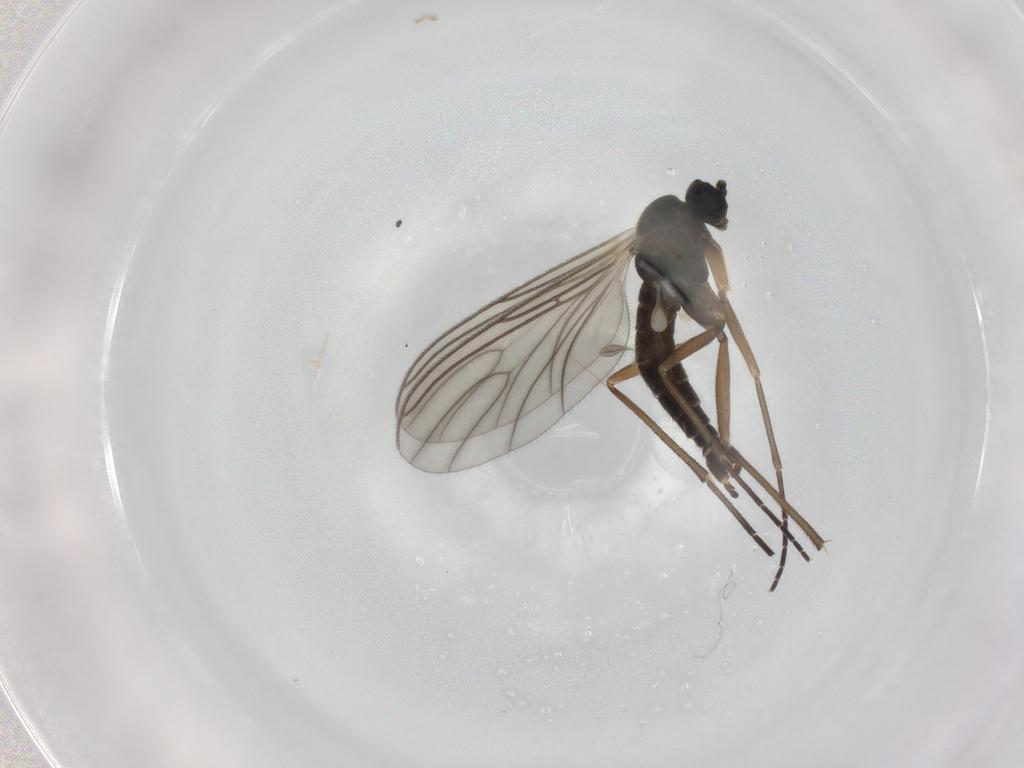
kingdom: Animalia
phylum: Arthropoda
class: Insecta
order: Diptera
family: Sciaridae
